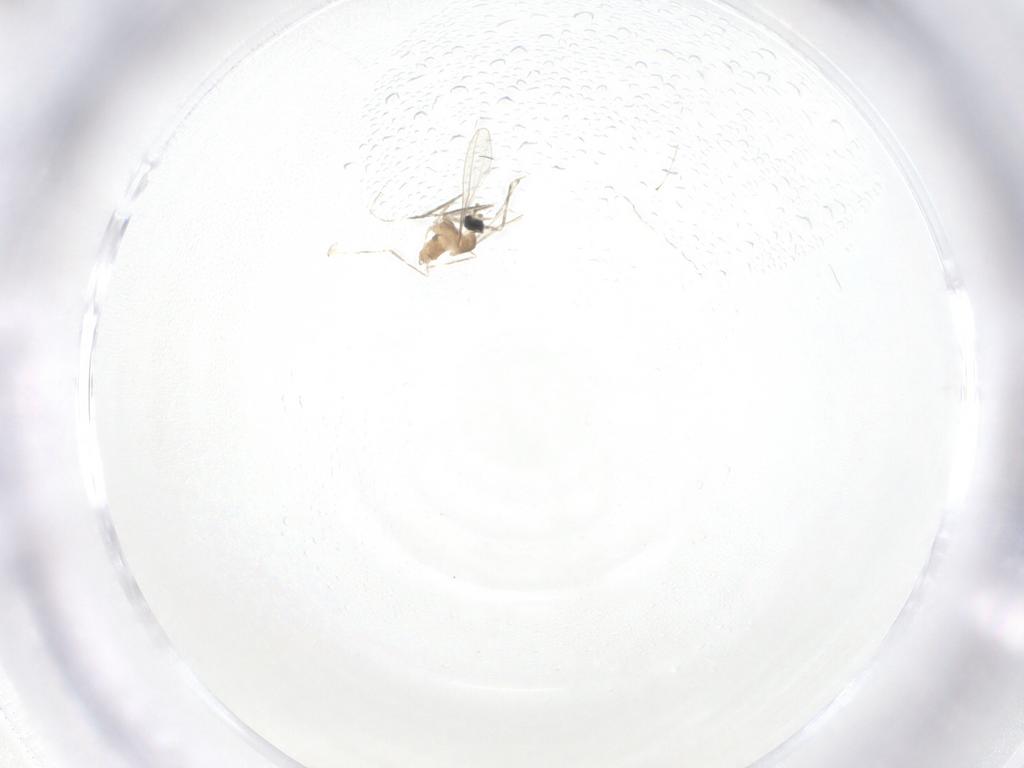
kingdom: Animalia
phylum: Arthropoda
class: Insecta
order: Diptera
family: Cecidomyiidae
